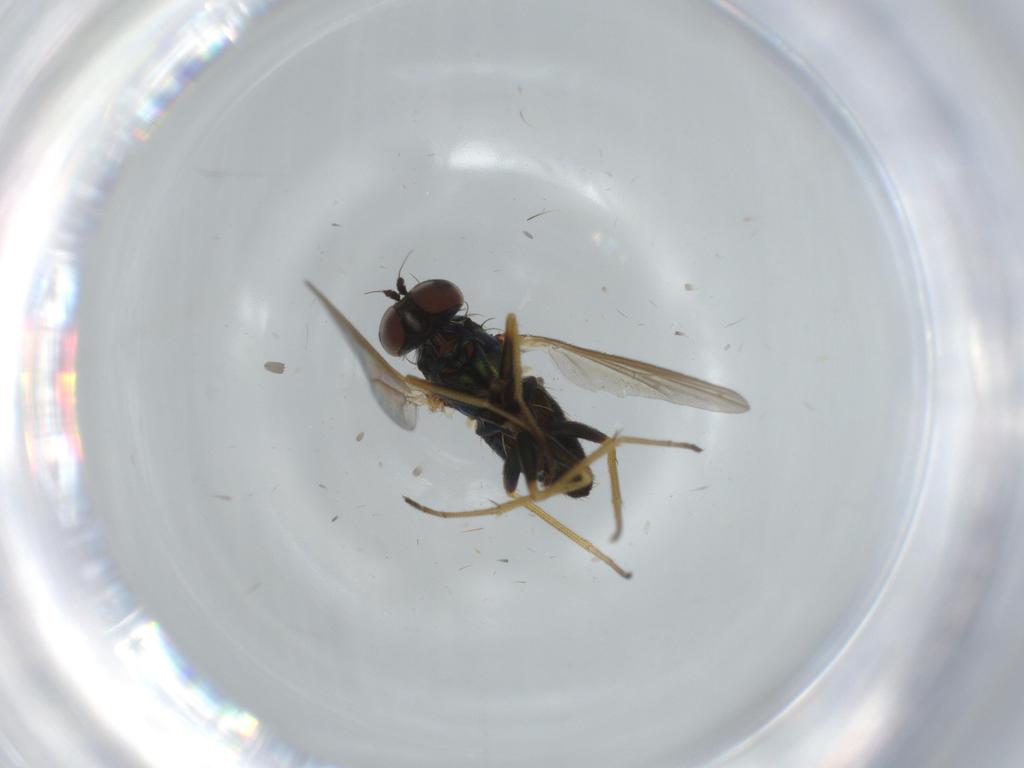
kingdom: Animalia
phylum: Arthropoda
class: Insecta
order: Diptera
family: Dolichopodidae
